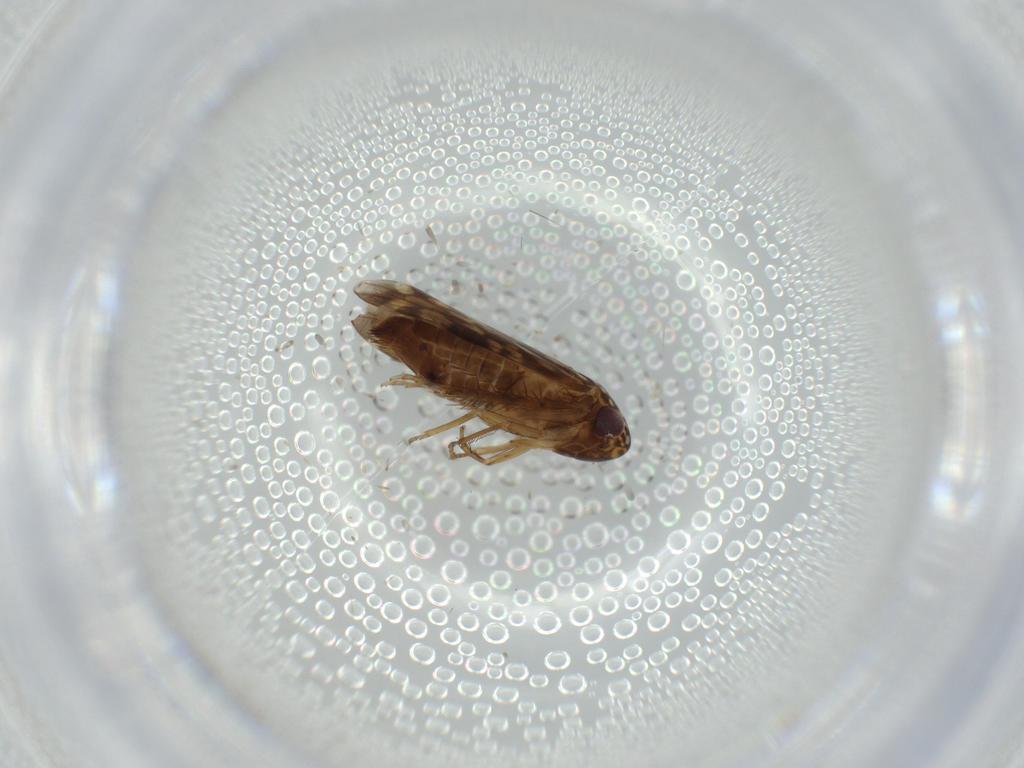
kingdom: Animalia
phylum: Arthropoda
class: Insecta
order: Hemiptera
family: Cicadellidae
